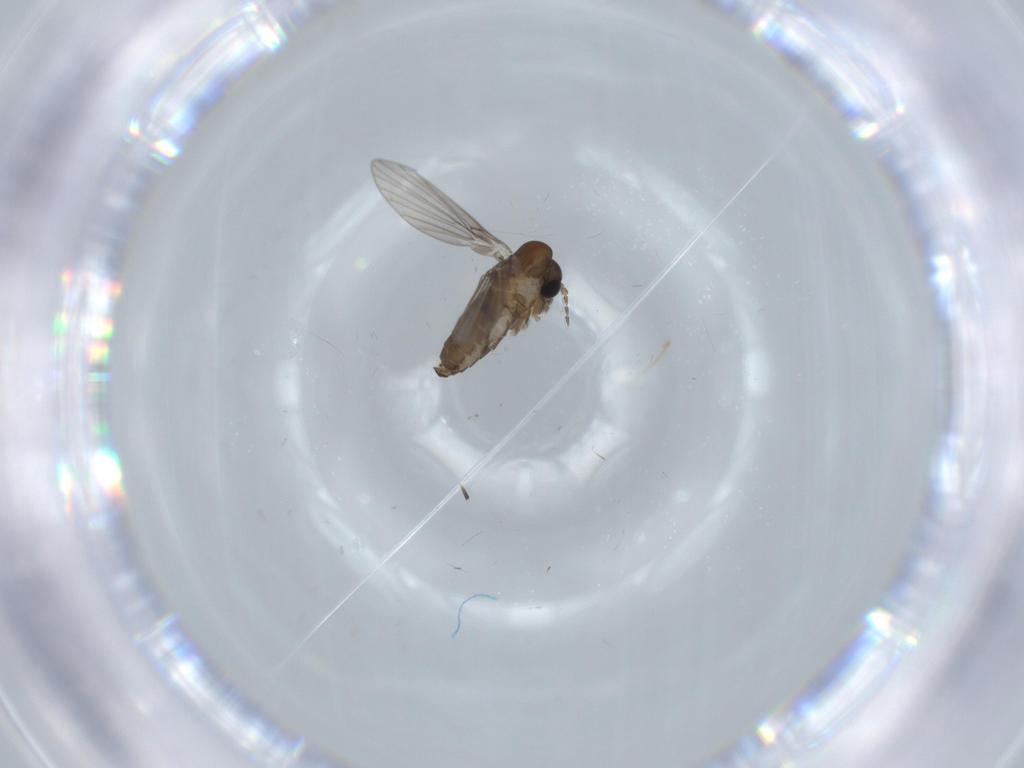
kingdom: Animalia
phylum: Arthropoda
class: Insecta
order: Diptera
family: Psychodidae
